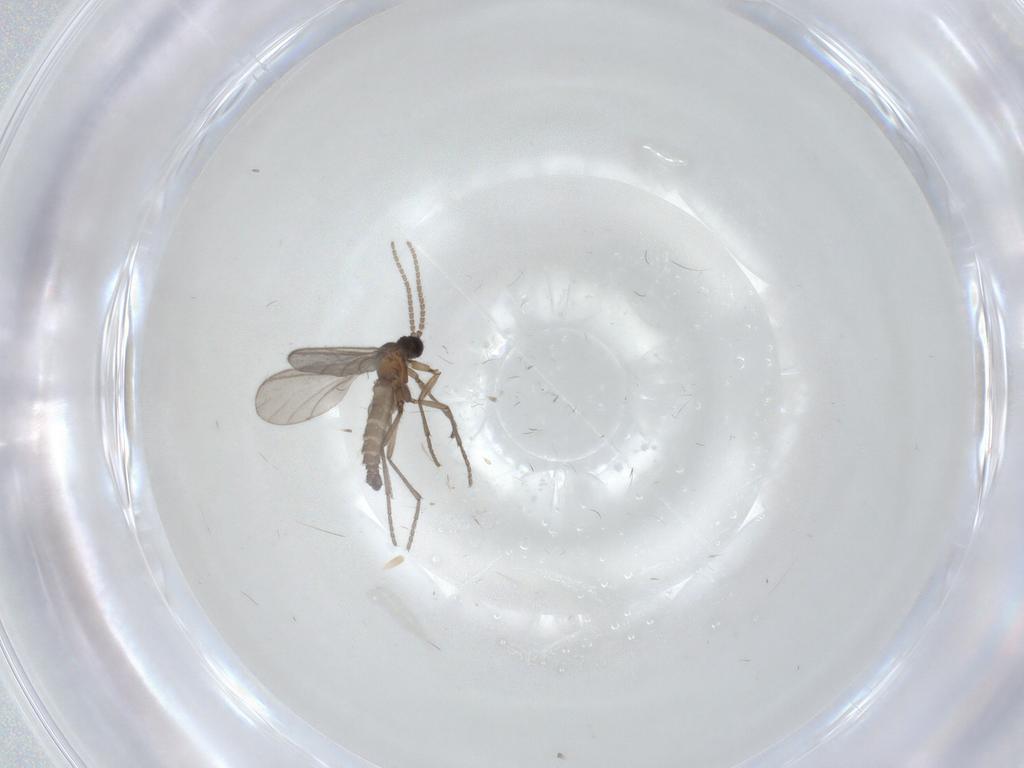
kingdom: Animalia
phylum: Arthropoda
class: Insecta
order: Diptera
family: Sciaridae
